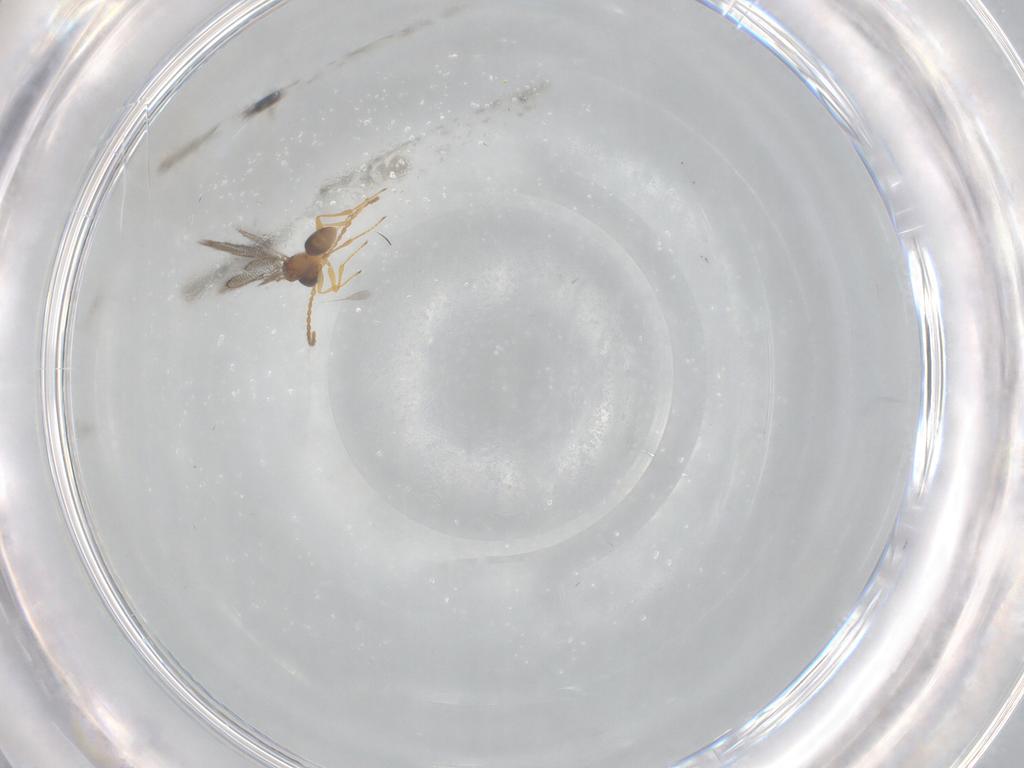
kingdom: Animalia
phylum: Arthropoda
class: Insecta
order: Hymenoptera
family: Figitidae
